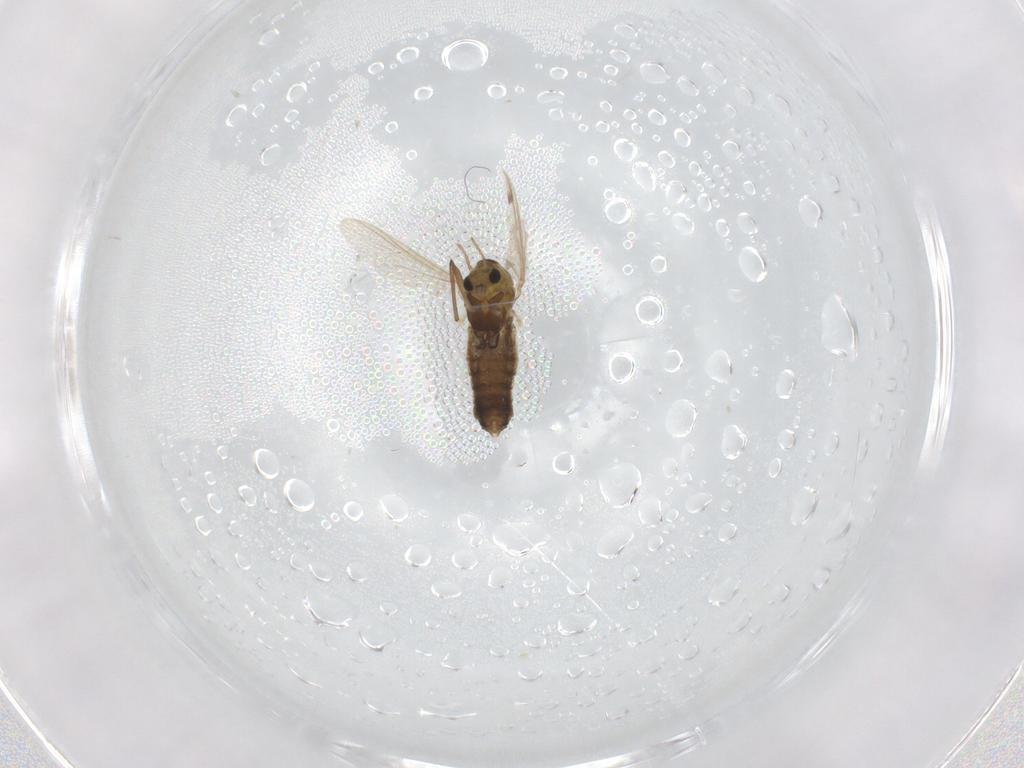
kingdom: Animalia
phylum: Arthropoda
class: Insecta
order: Diptera
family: Chironomidae
